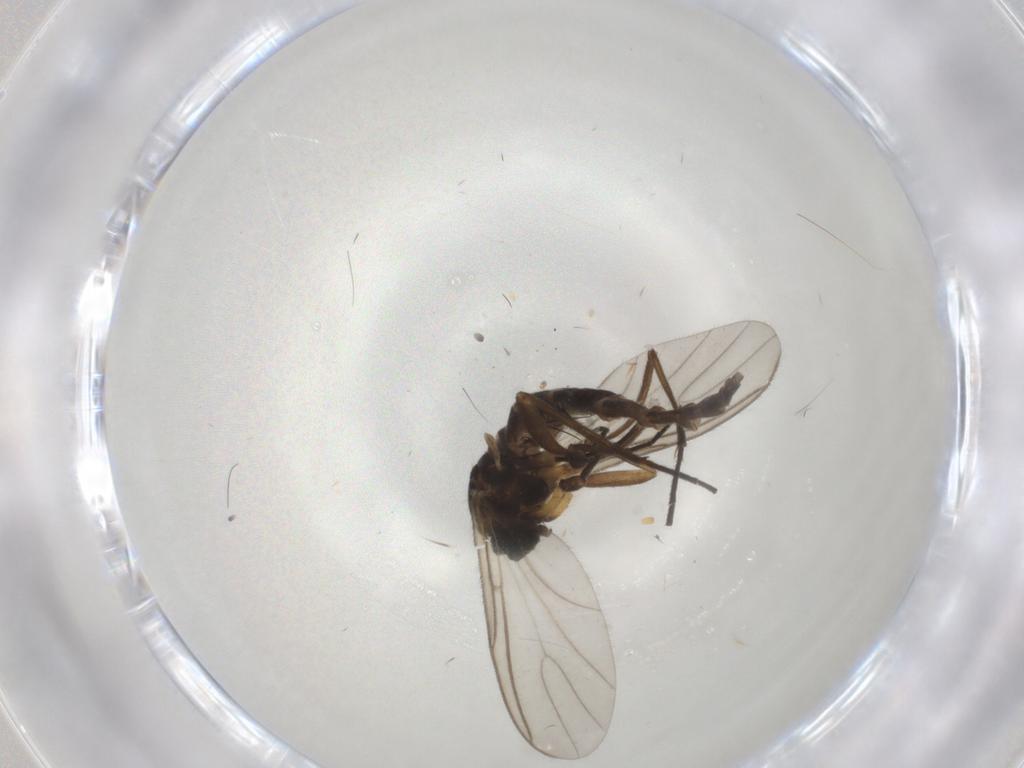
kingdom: Animalia
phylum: Arthropoda
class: Insecta
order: Diptera
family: Sciaridae
